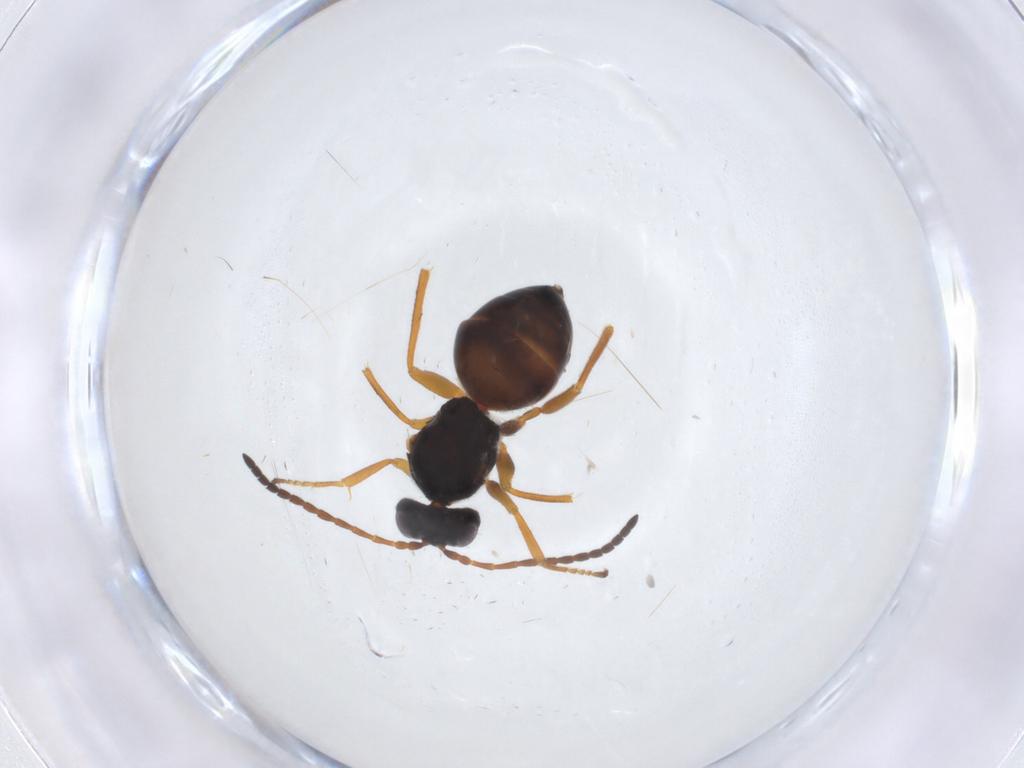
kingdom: Animalia
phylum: Arthropoda
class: Insecta
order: Hymenoptera
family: Cynipidae
